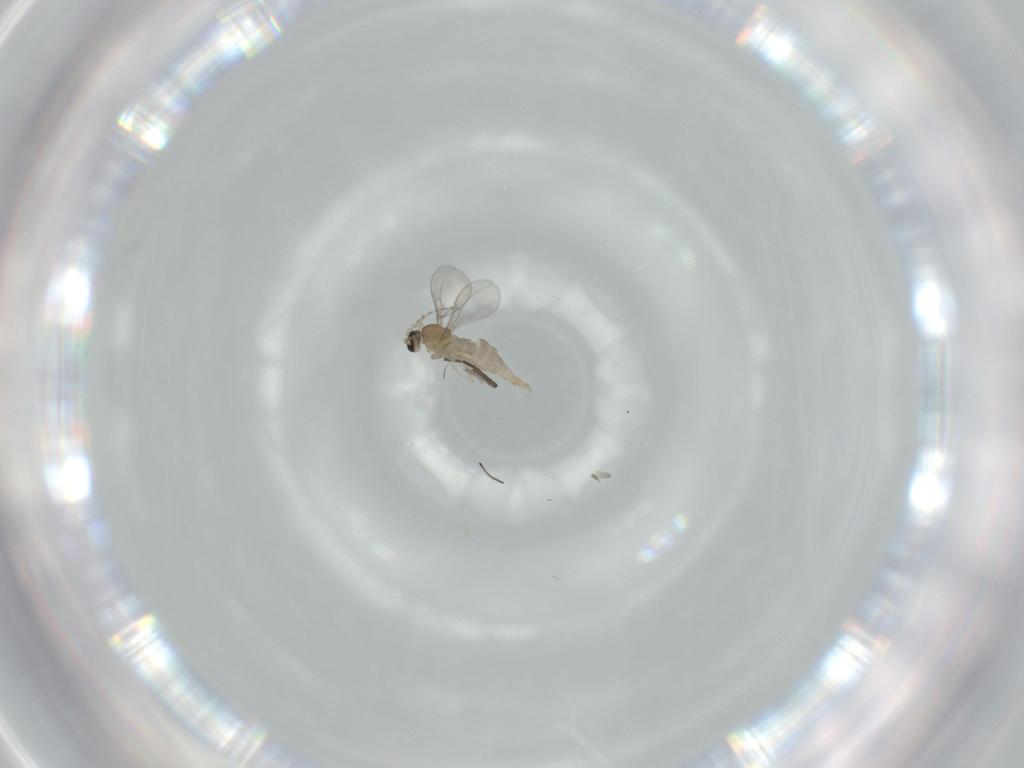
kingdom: Animalia
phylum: Arthropoda
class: Insecta
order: Diptera
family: Cecidomyiidae
